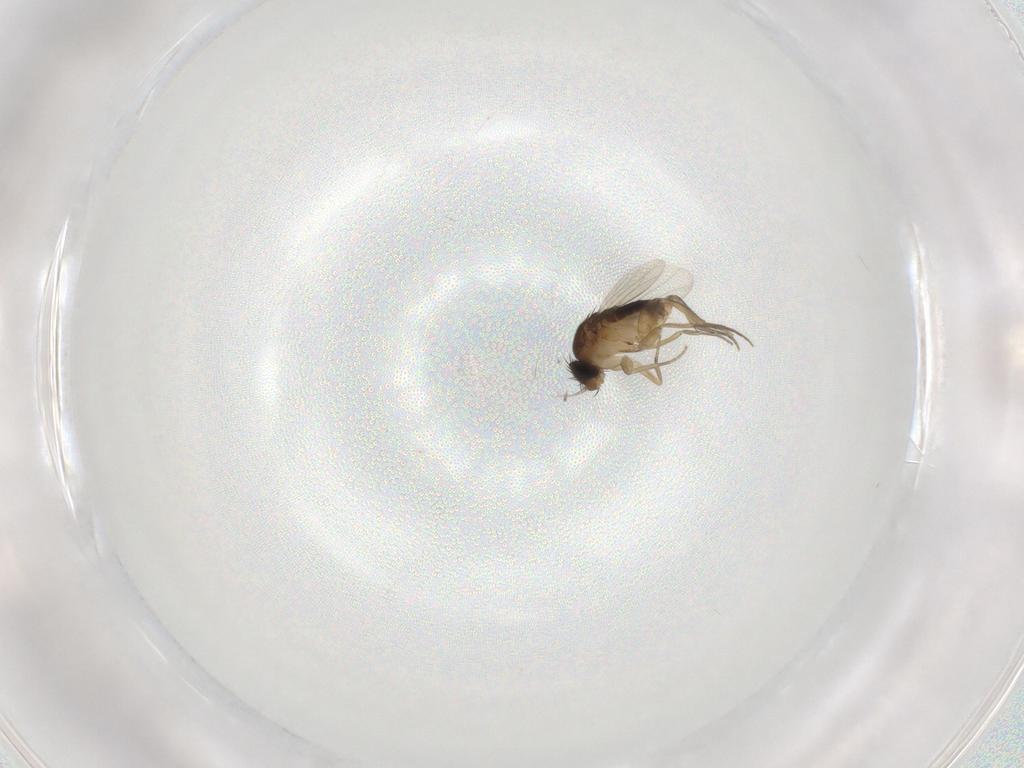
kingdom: Animalia
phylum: Arthropoda
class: Insecta
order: Diptera
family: Phoridae
